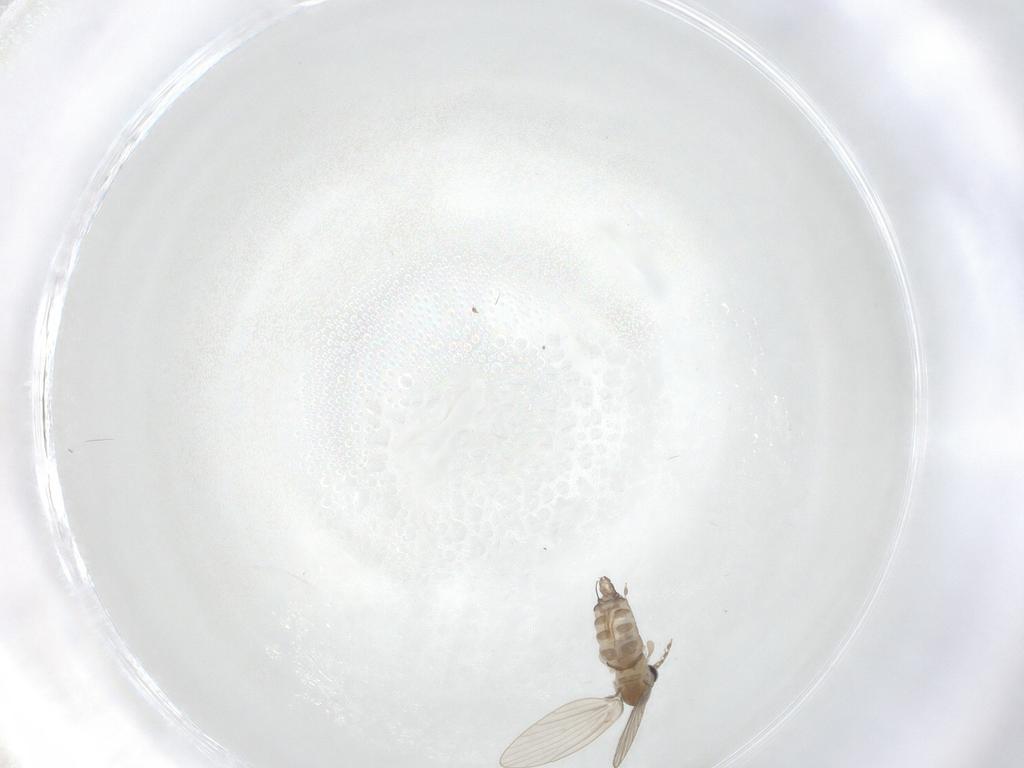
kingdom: Animalia
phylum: Arthropoda
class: Insecta
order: Diptera
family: Psychodidae
